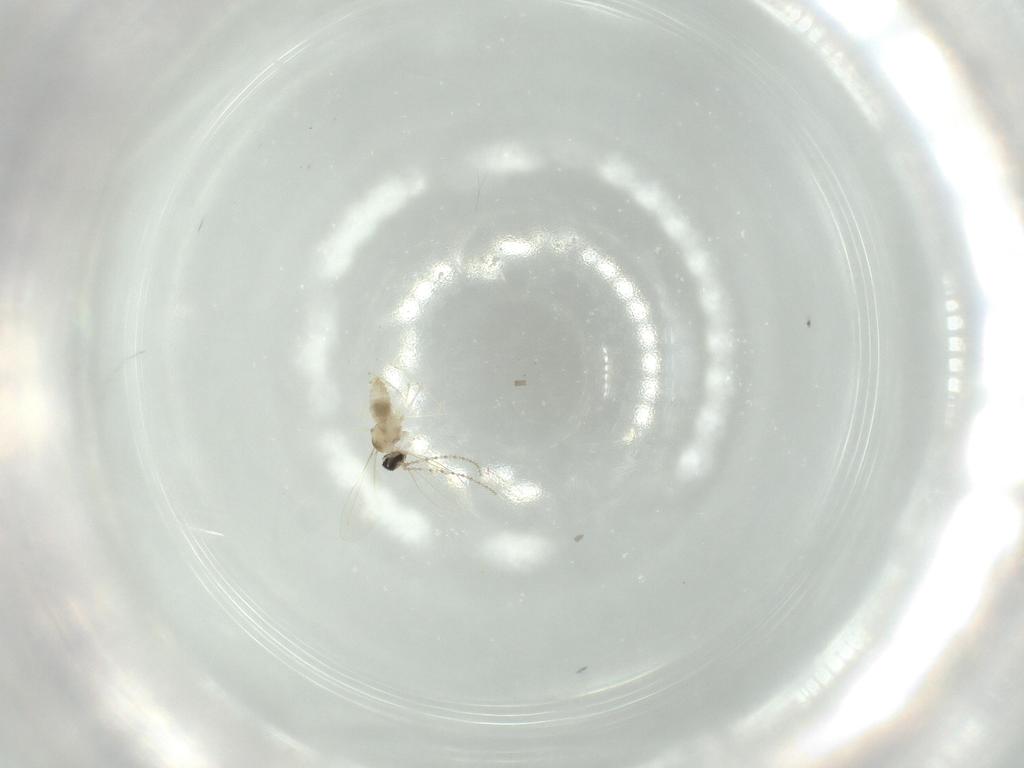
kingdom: Animalia
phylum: Arthropoda
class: Insecta
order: Diptera
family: Cecidomyiidae
